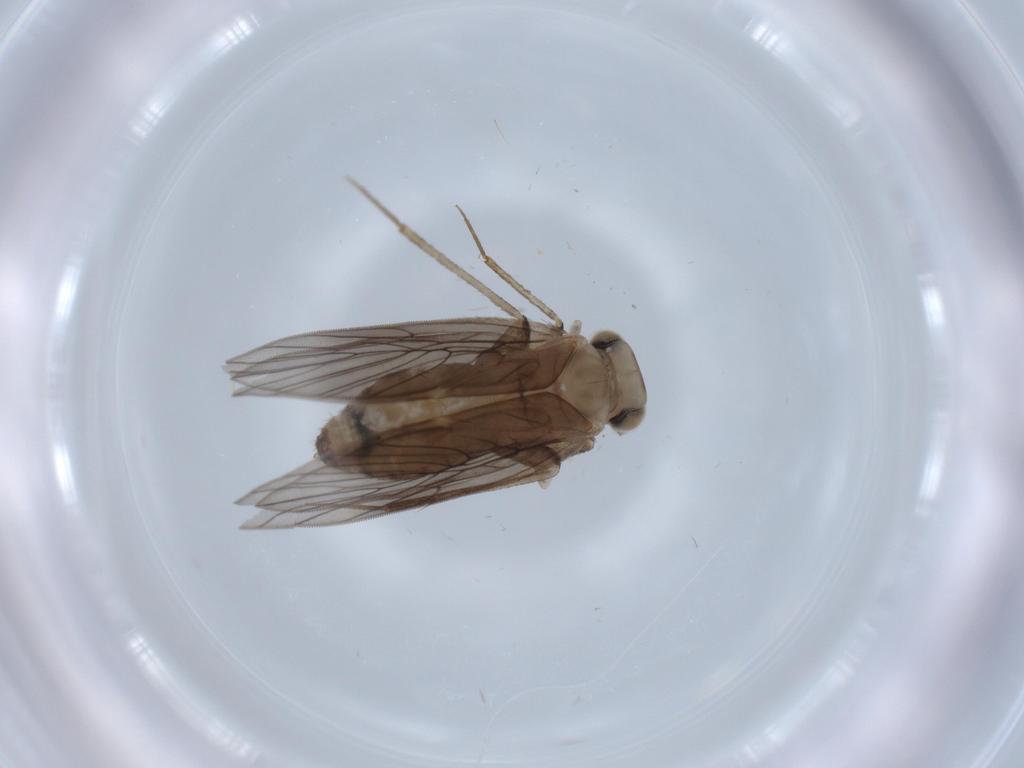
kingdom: Animalia
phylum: Arthropoda
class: Insecta
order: Psocodea
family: Lepidopsocidae
